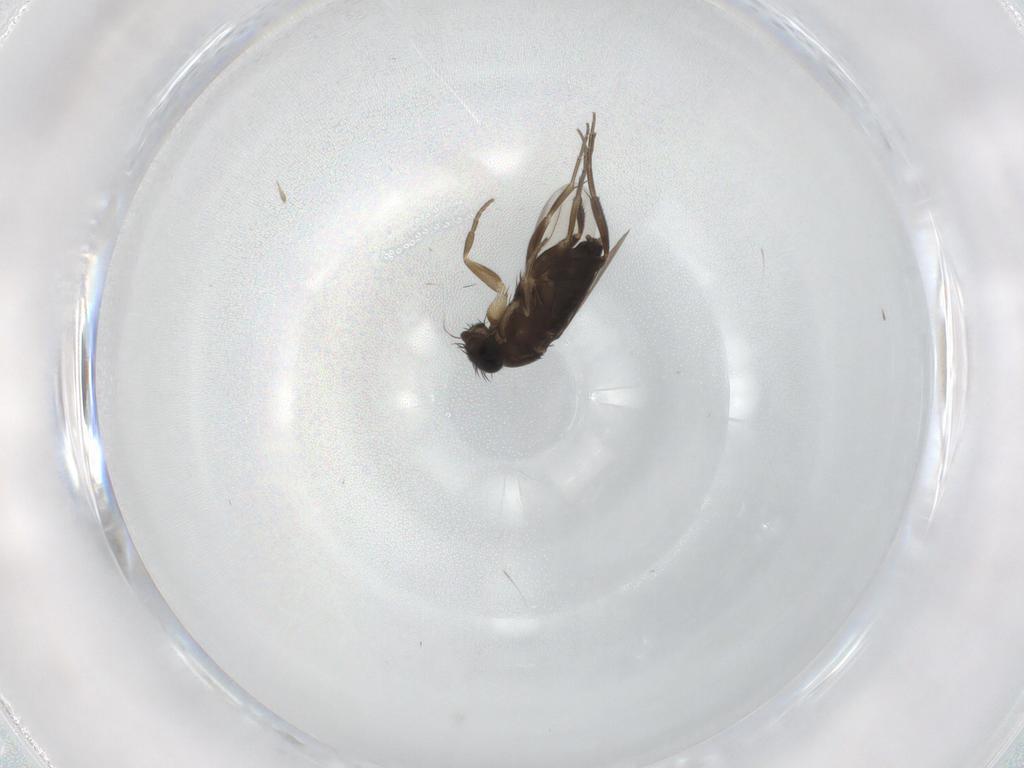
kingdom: Animalia
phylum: Arthropoda
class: Insecta
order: Diptera
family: Phoridae
